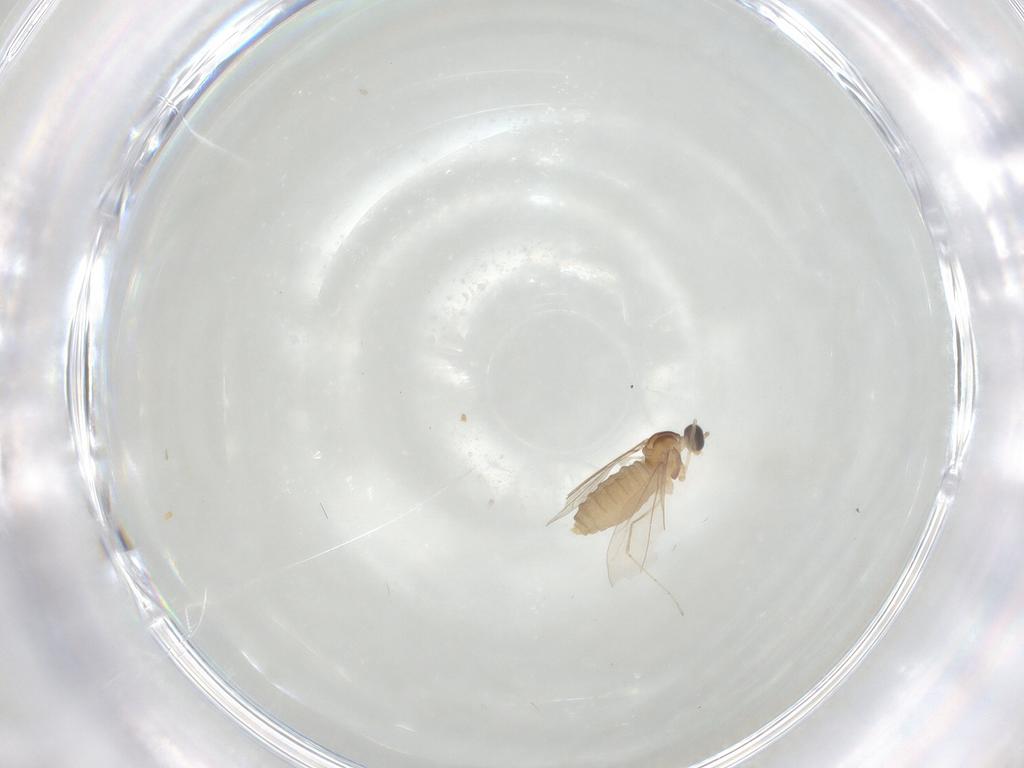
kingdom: Animalia
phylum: Arthropoda
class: Insecta
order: Diptera
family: Cecidomyiidae
